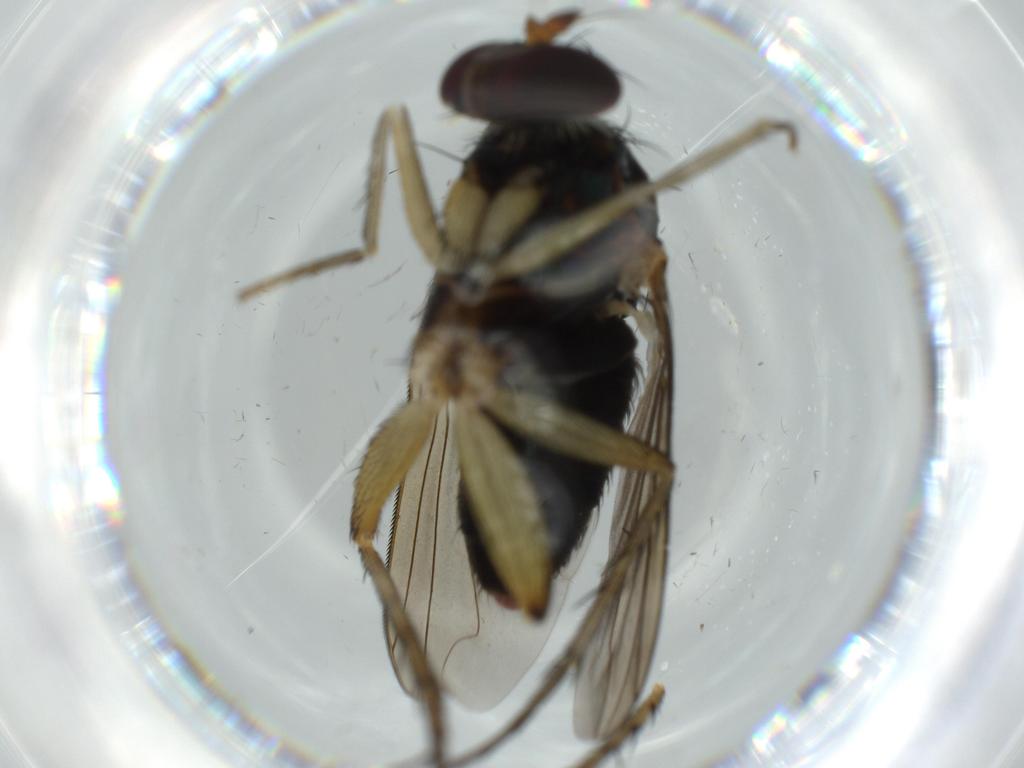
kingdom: Animalia
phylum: Arthropoda
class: Insecta
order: Diptera
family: Dolichopodidae
